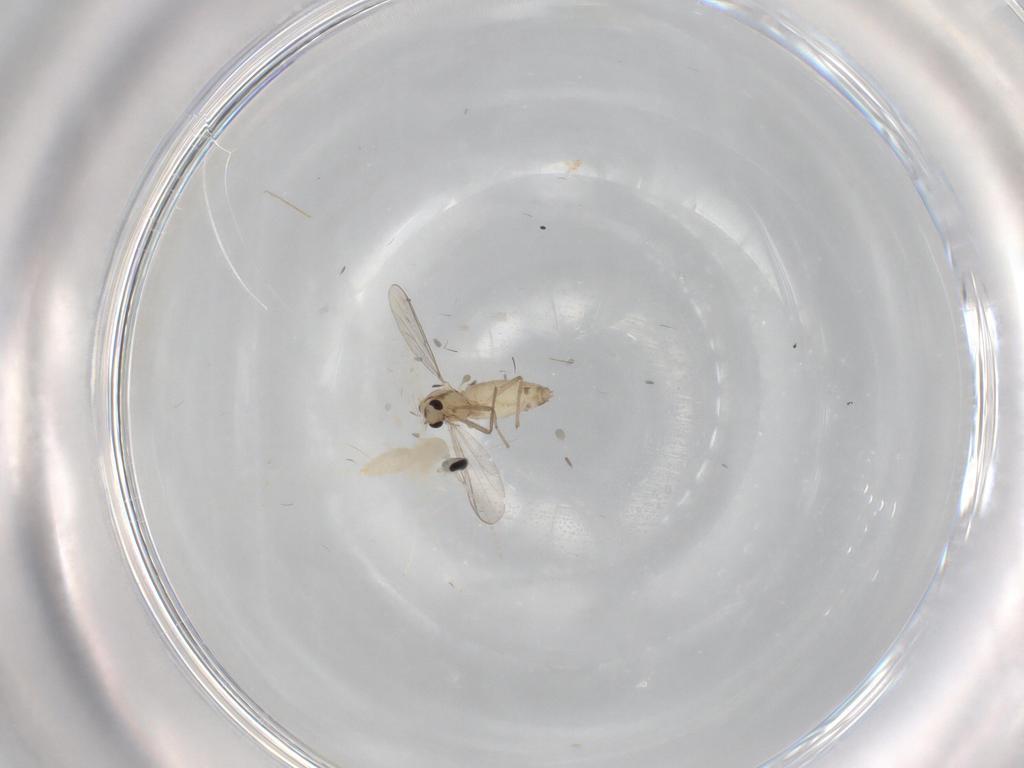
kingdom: Animalia
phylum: Arthropoda
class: Insecta
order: Diptera
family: Cecidomyiidae
